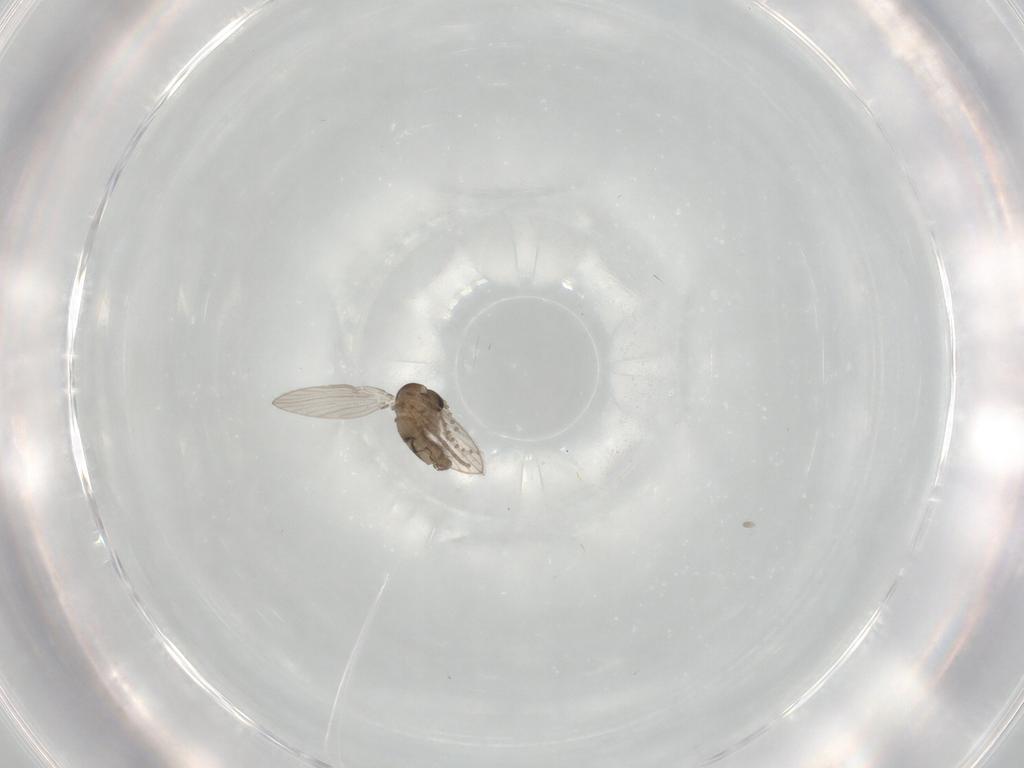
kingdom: Animalia
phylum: Arthropoda
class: Insecta
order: Diptera
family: Psychodidae
